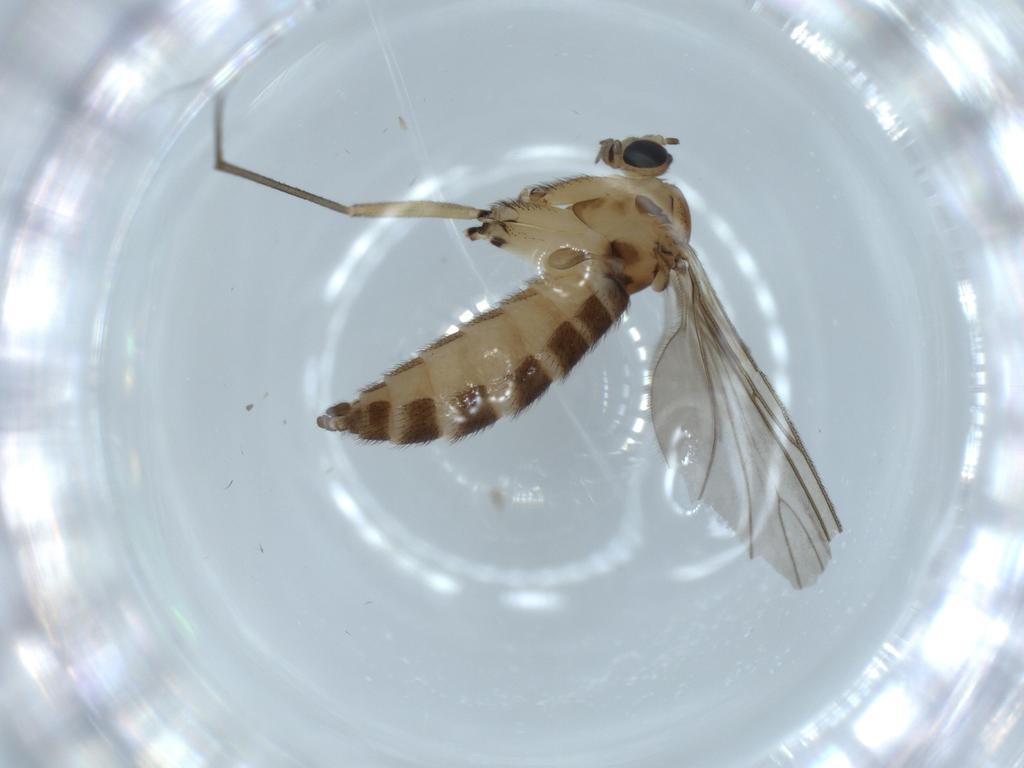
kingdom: Animalia
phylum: Arthropoda
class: Insecta
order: Diptera
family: Sciaridae
